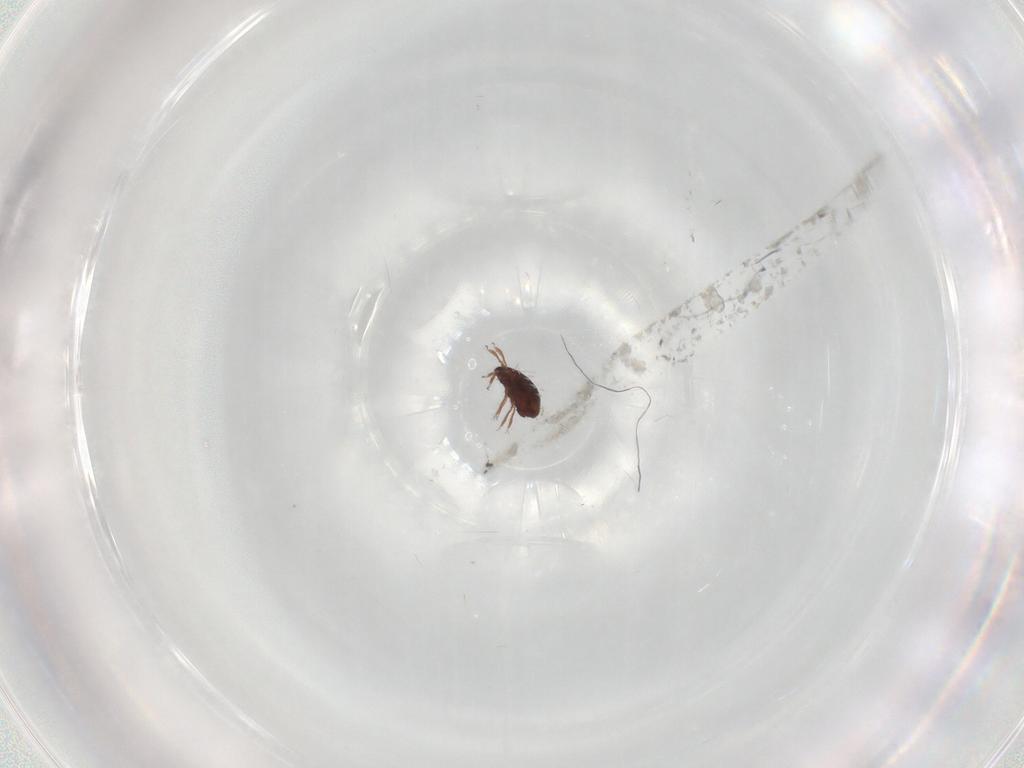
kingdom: Animalia
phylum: Arthropoda
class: Arachnida
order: Sarcoptiformes
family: Scheloribatidae
